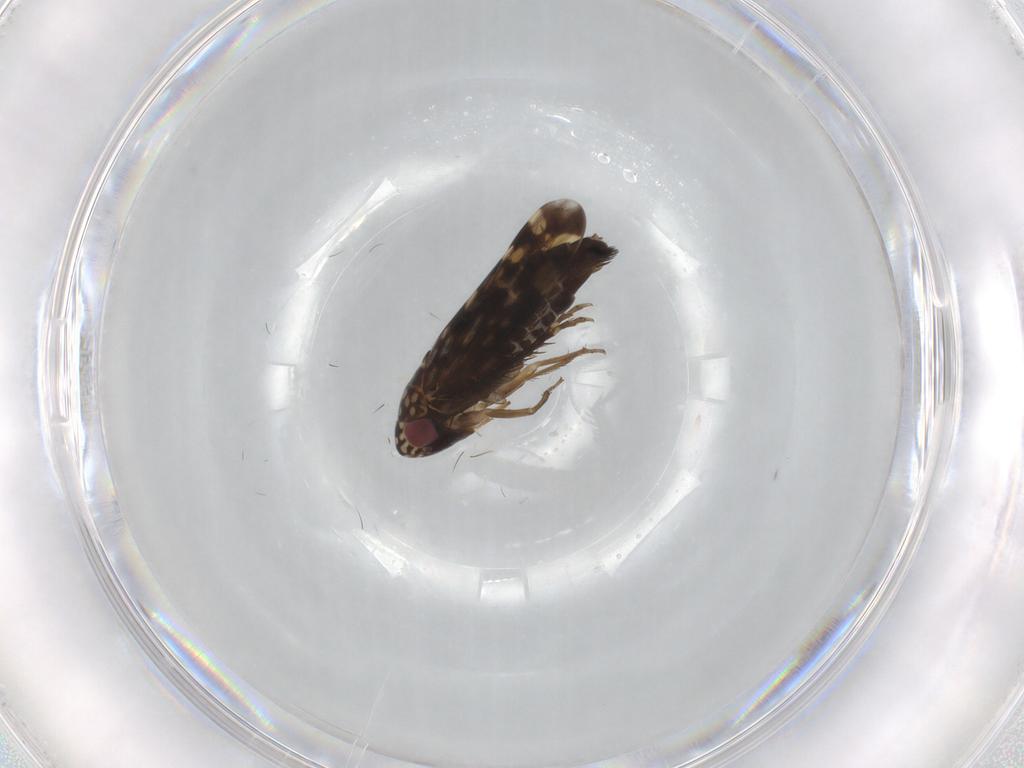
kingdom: Animalia
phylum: Arthropoda
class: Insecta
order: Hemiptera
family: Cicadellidae
